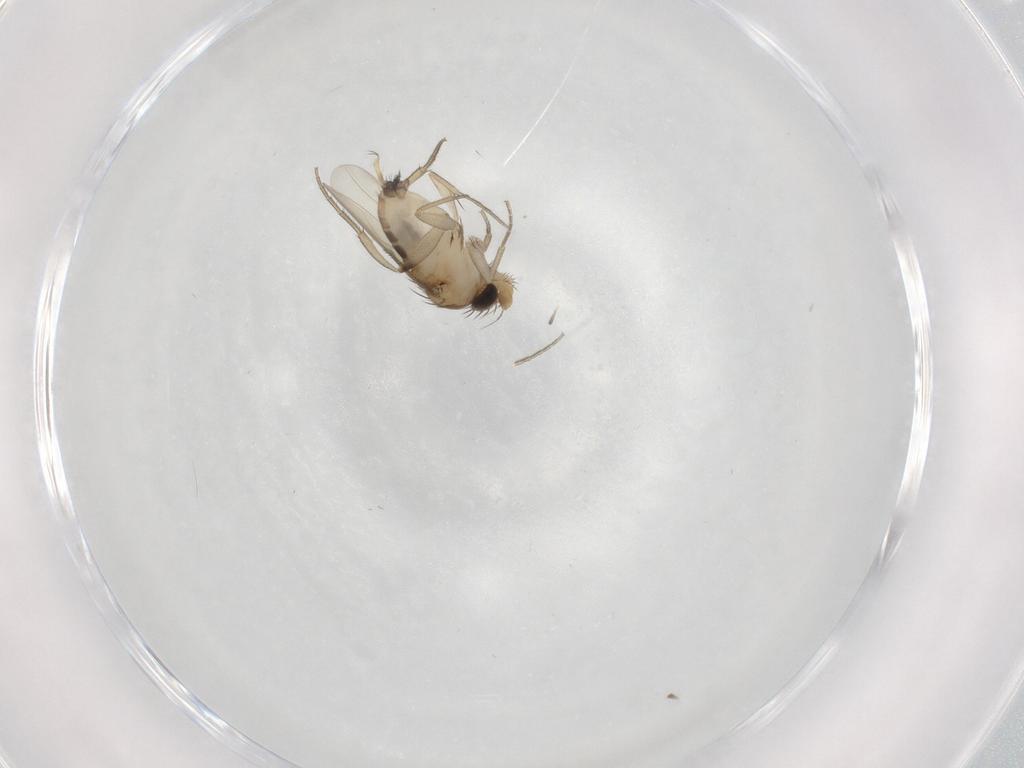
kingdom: Animalia
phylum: Arthropoda
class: Insecta
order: Diptera
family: Phoridae
